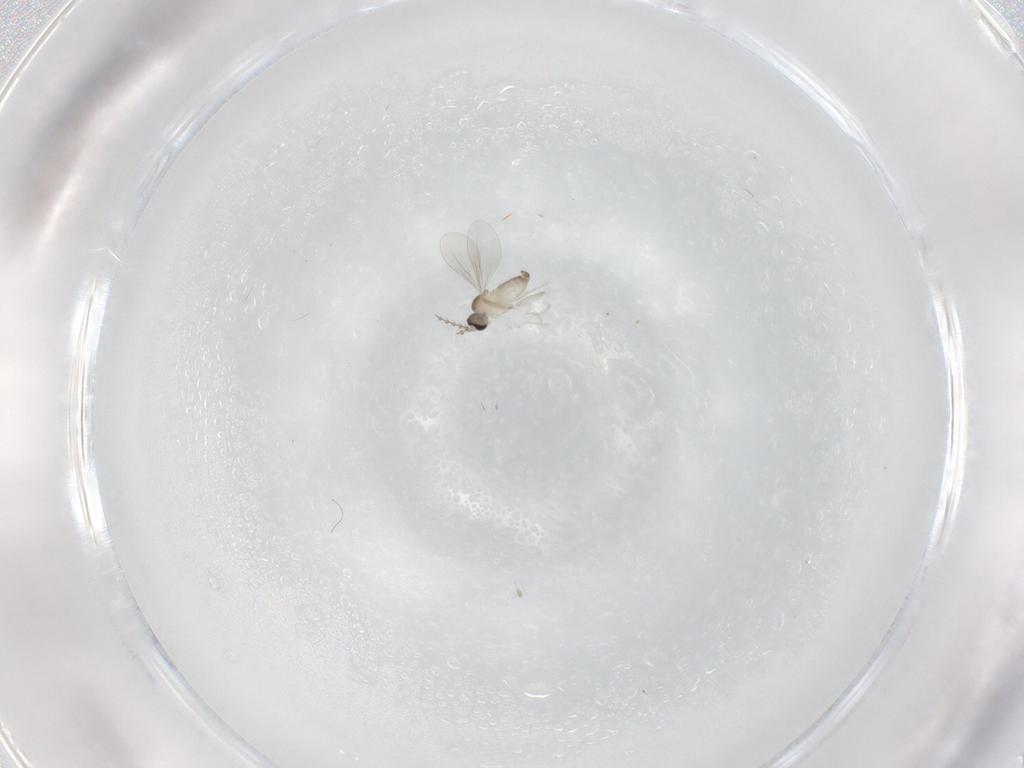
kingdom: Animalia
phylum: Arthropoda
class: Insecta
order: Diptera
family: Cecidomyiidae
